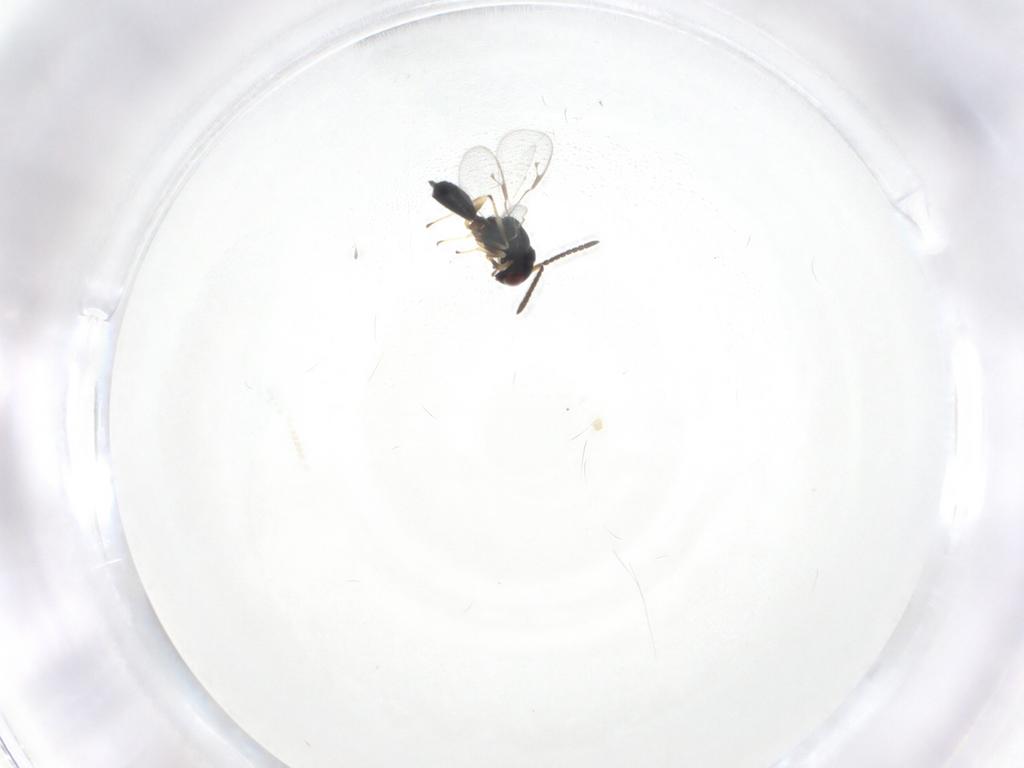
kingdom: Animalia
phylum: Arthropoda
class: Insecta
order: Hymenoptera
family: Pteromalidae
